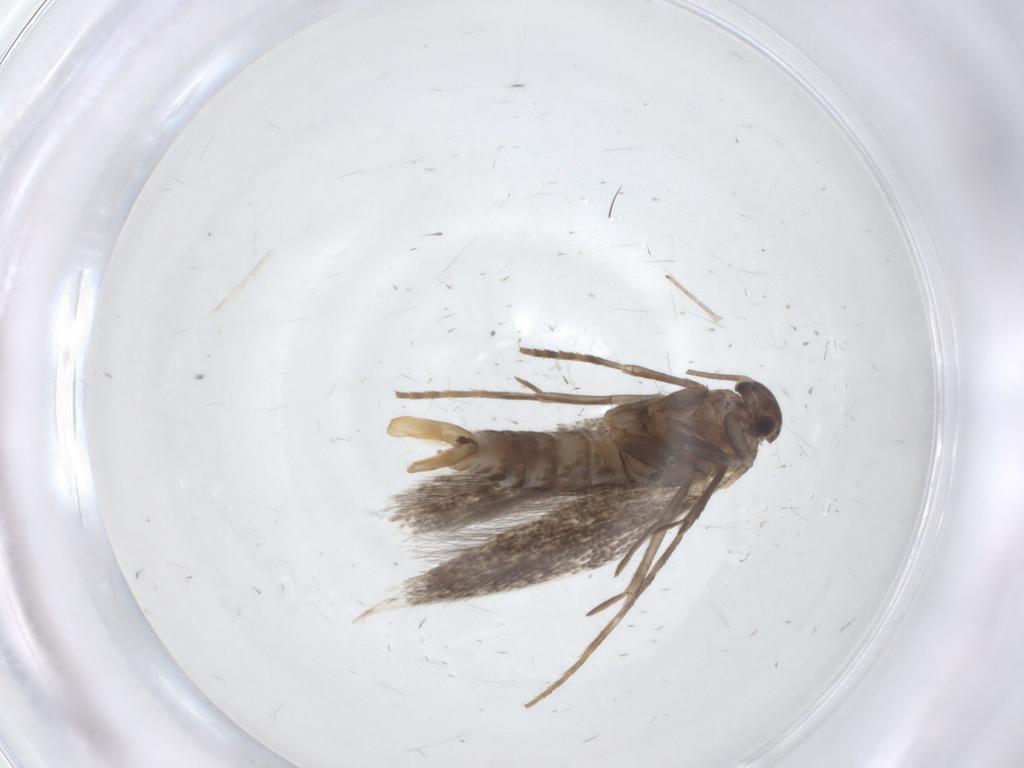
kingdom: Animalia
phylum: Arthropoda
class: Insecta
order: Lepidoptera
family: Elachistidae
